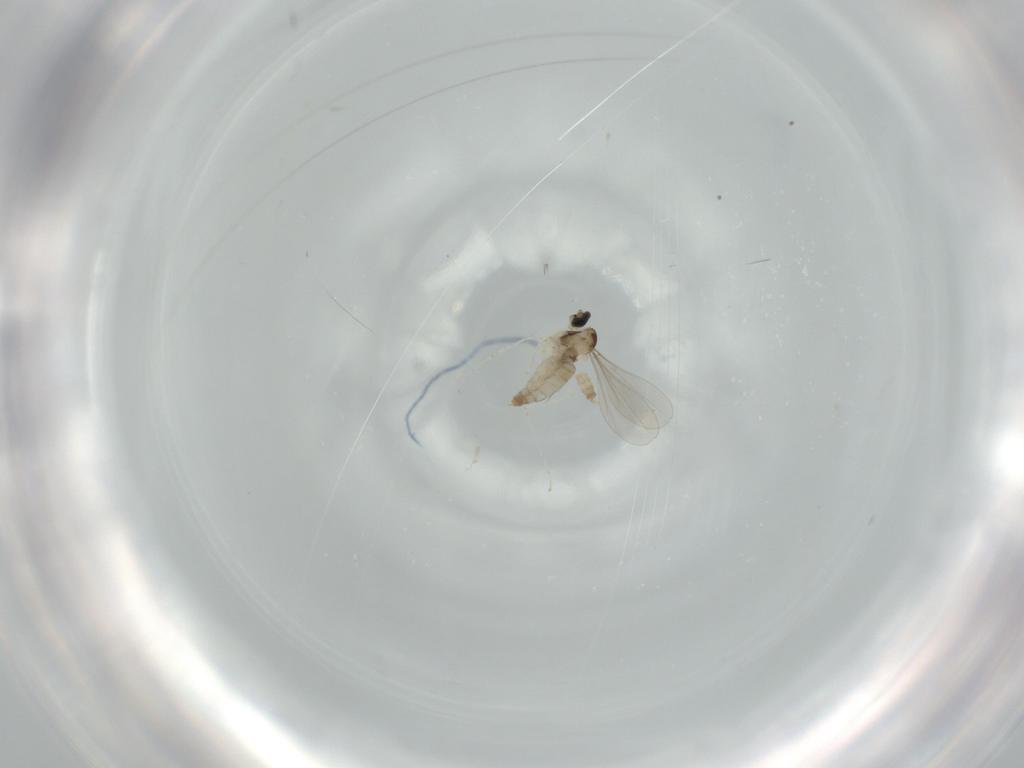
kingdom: Animalia
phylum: Arthropoda
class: Insecta
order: Diptera
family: Cecidomyiidae
